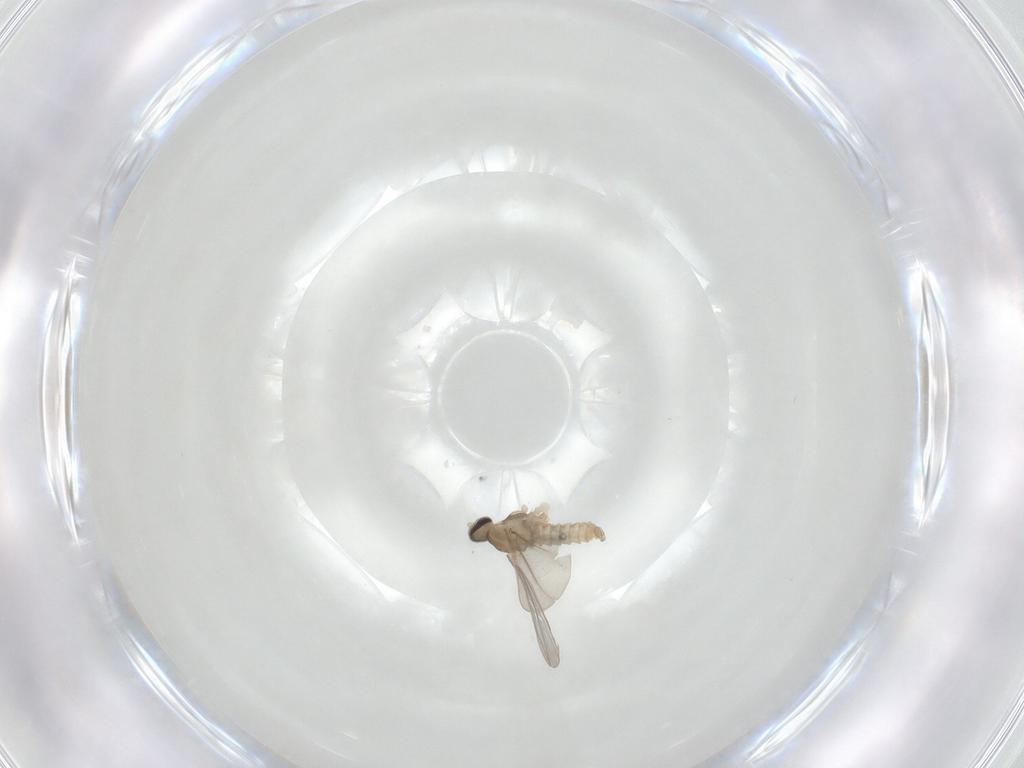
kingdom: Animalia
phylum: Arthropoda
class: Insecta
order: Diptera
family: Cecidomyiidae
